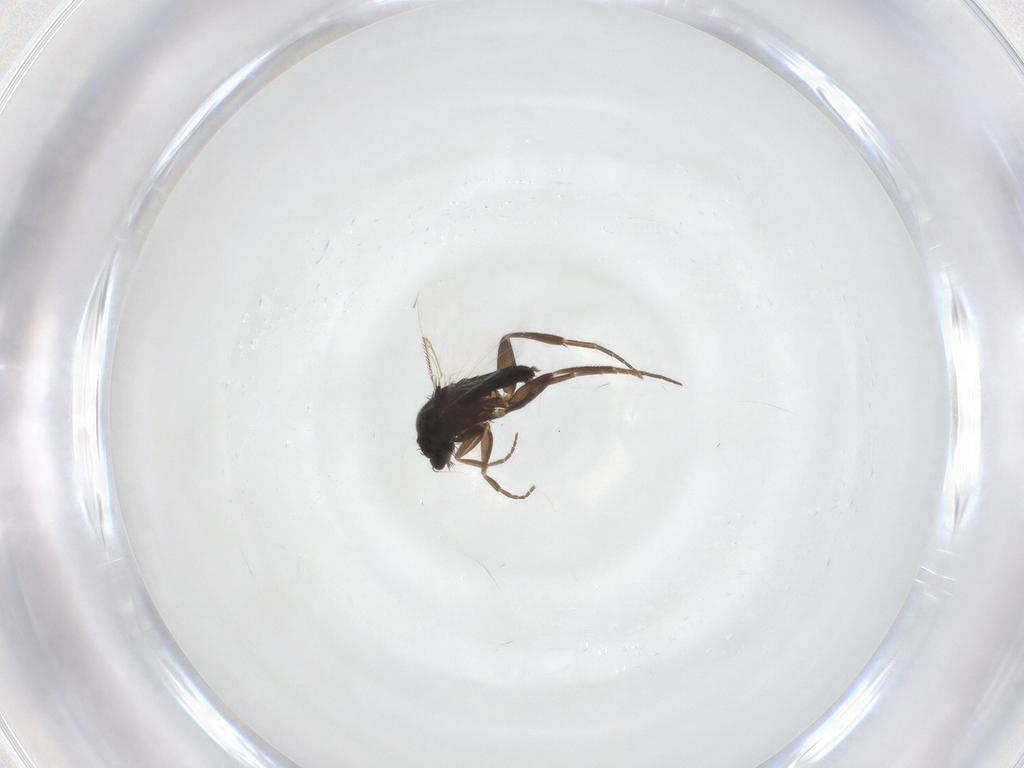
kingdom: Animalia
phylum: Arthropoda
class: Insecta
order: Diptera
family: Phoridae
